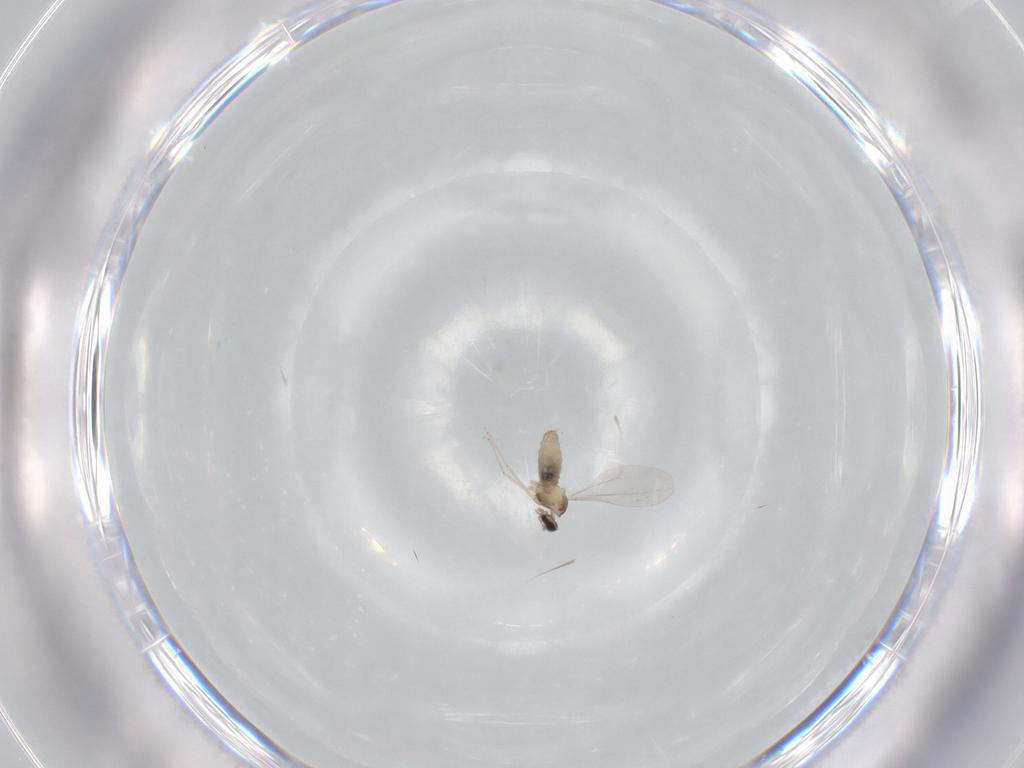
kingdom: Animalia
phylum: Arthropoda
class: Insecta
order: Diptera
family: Cecidomyiidae
